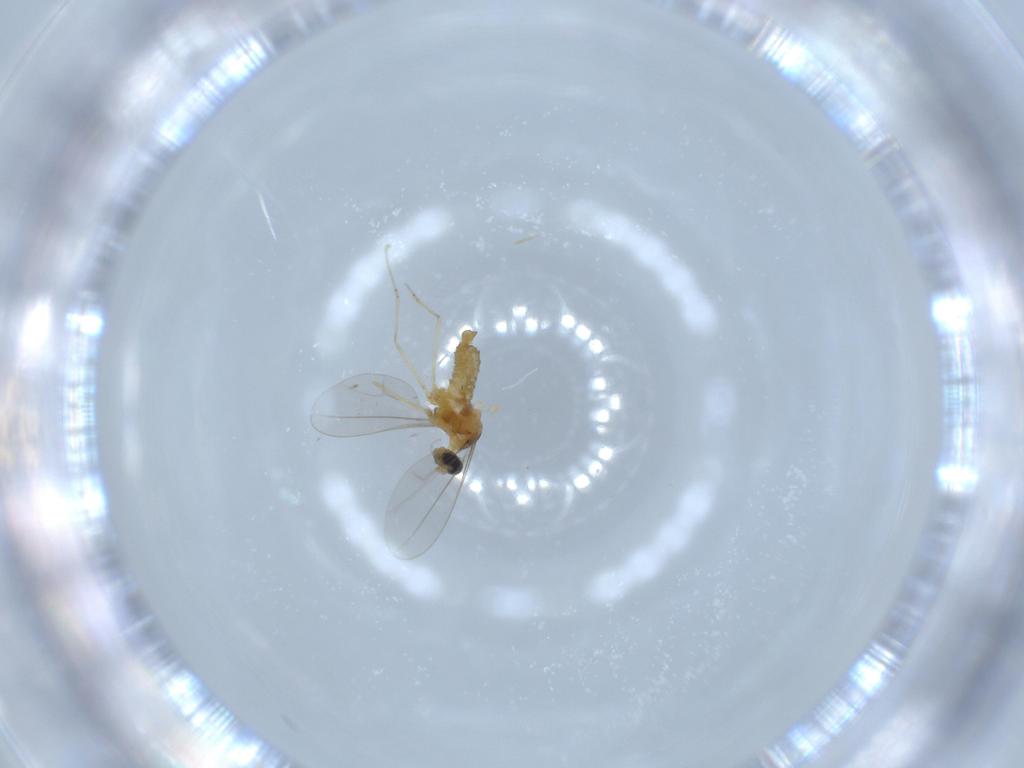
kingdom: Animalia
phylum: Arthropoda
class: Insecta
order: Diptera
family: Cecidomyiidae
